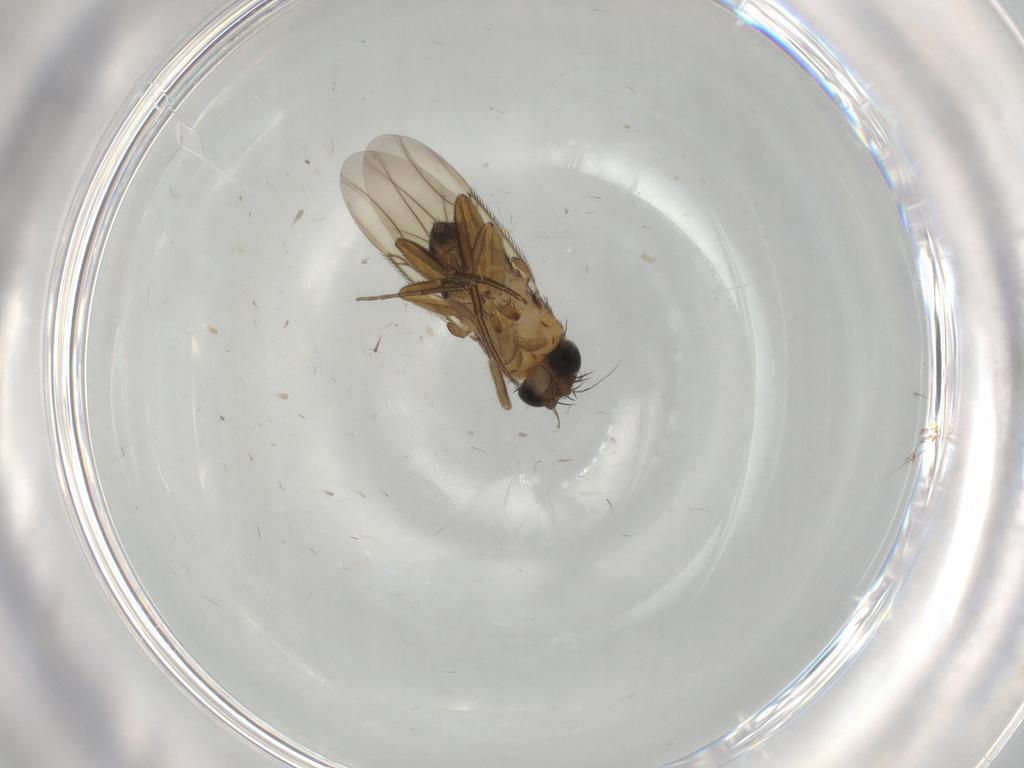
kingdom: Animalia
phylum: Arthropoda
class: Insecta
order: Diptera
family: Phoridae
